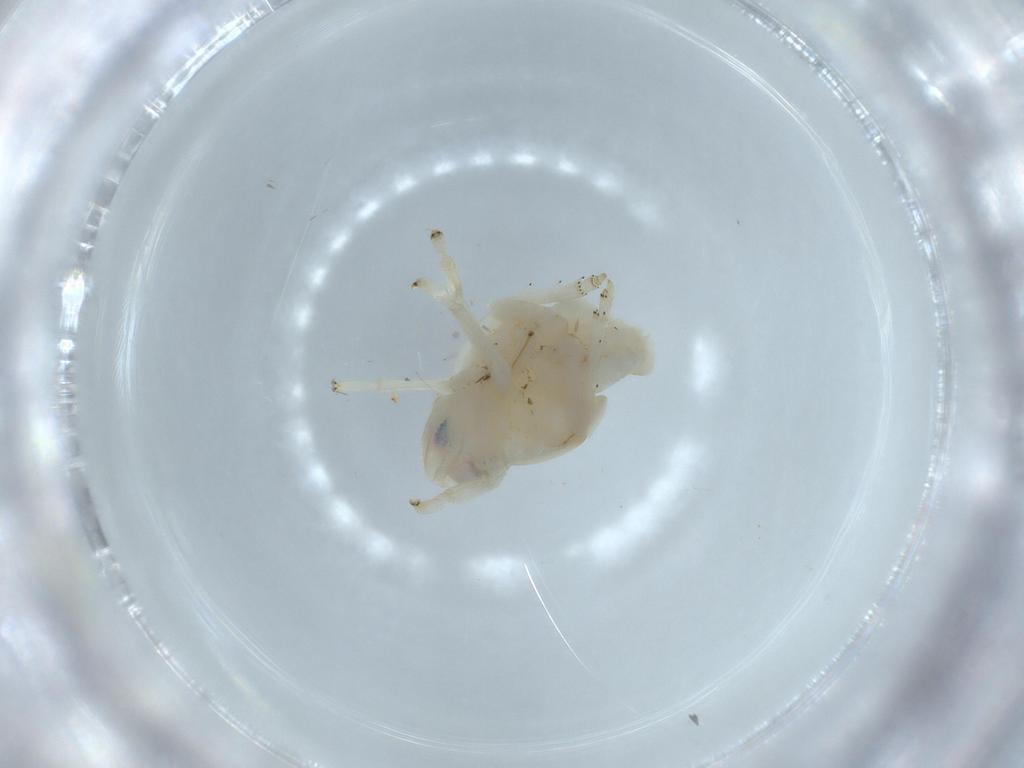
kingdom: Animalia
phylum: Arthropoda
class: Insecta
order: Hemiptera
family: Nogodinidae
